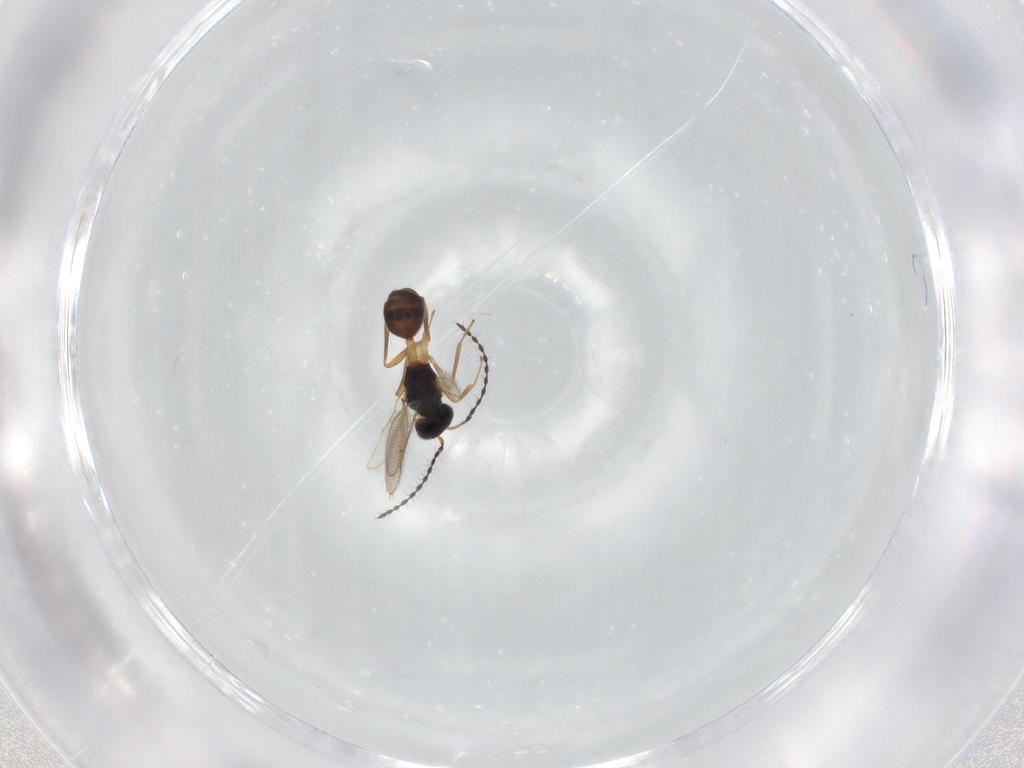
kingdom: Animalia
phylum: Arthropoda
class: Insecta
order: Hymenoptera
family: Diparidae
